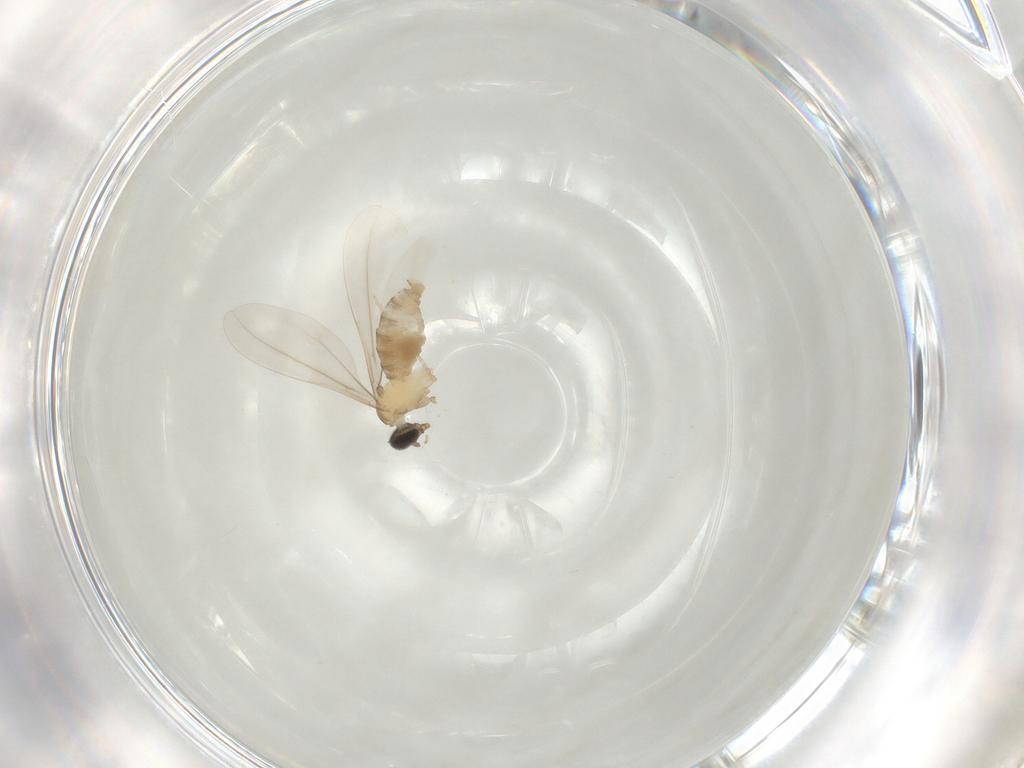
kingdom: Animalia
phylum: Arthropoda
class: Insecta
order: Diptera
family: Cecidomyiidae
